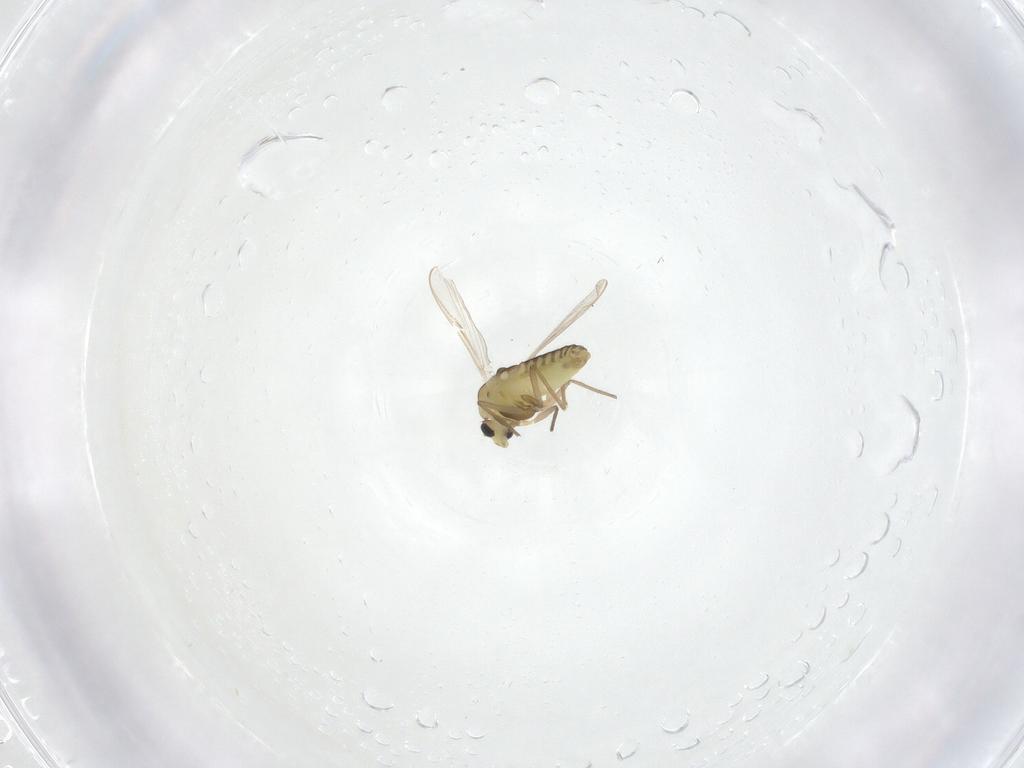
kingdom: Animalia
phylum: Arthropoda
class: Insecta
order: Diptera
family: Chironomidae
